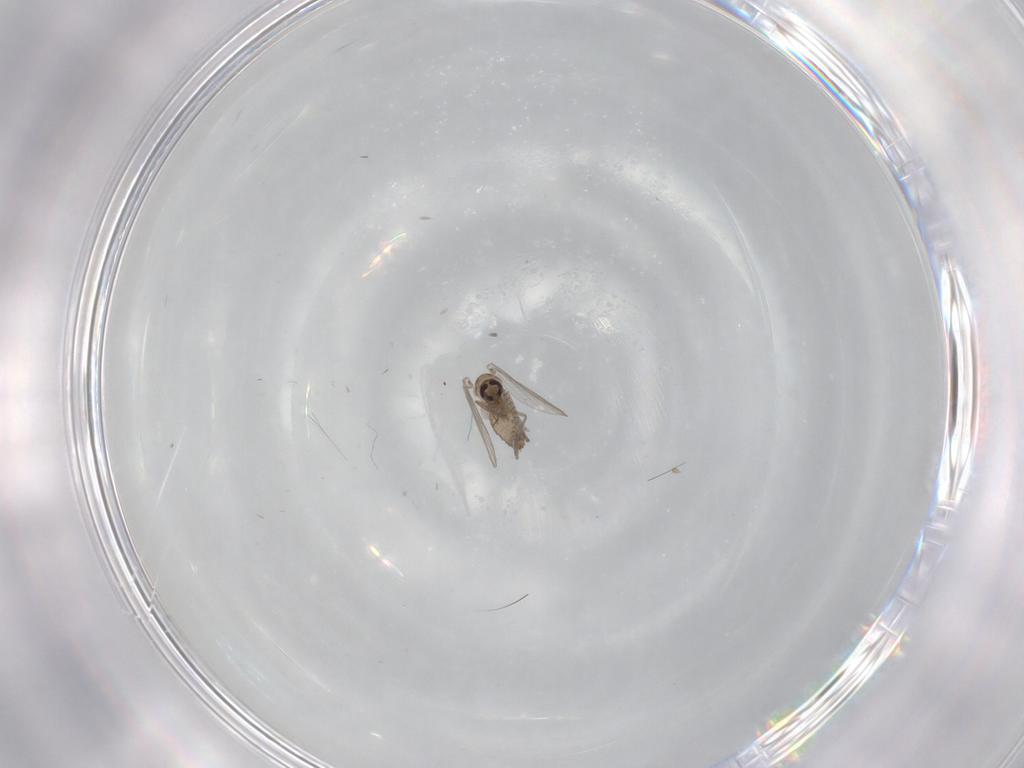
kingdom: Animalia
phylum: Arthropoda
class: Insecta
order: Diptera
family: Psychodidae
